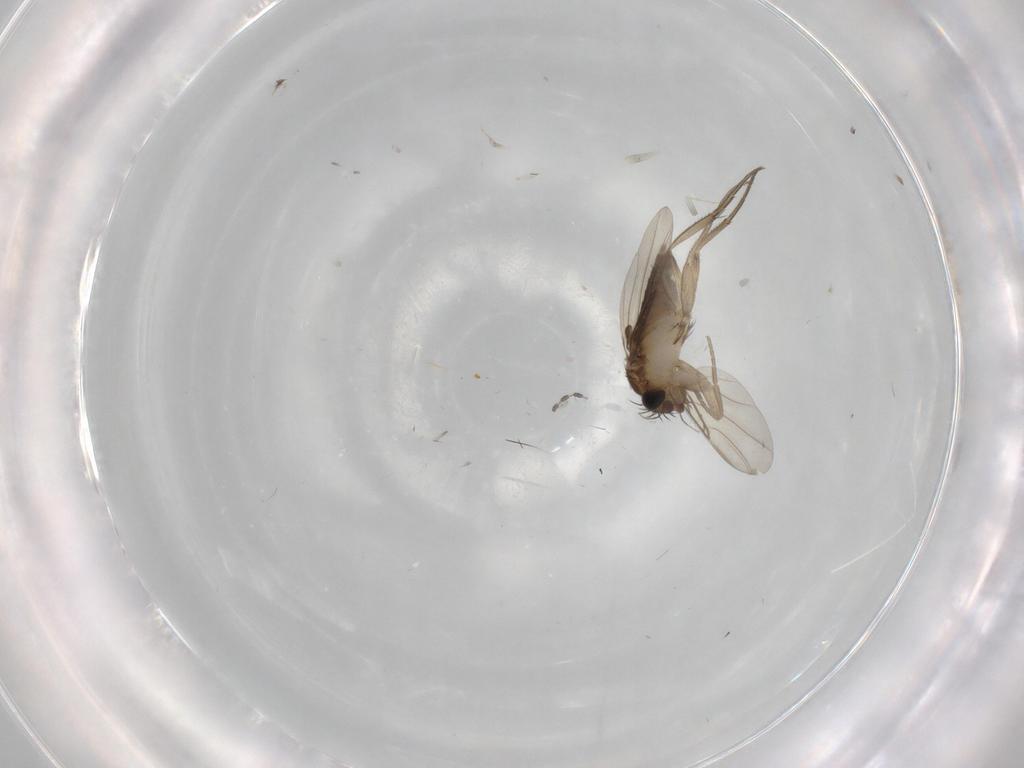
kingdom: Animalia
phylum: Arthropoda
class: Insecta
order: Diptera
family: Phoridae
